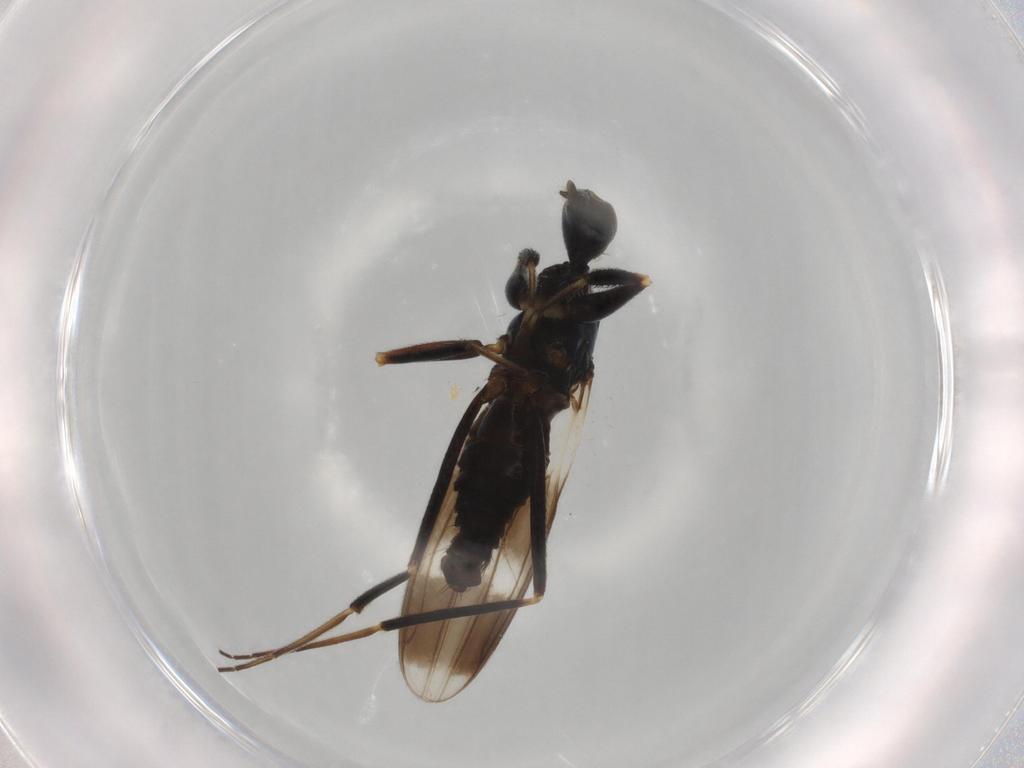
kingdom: Animalia
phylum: Arthropoda
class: Insecta
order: Diptera
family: Hybotidae
